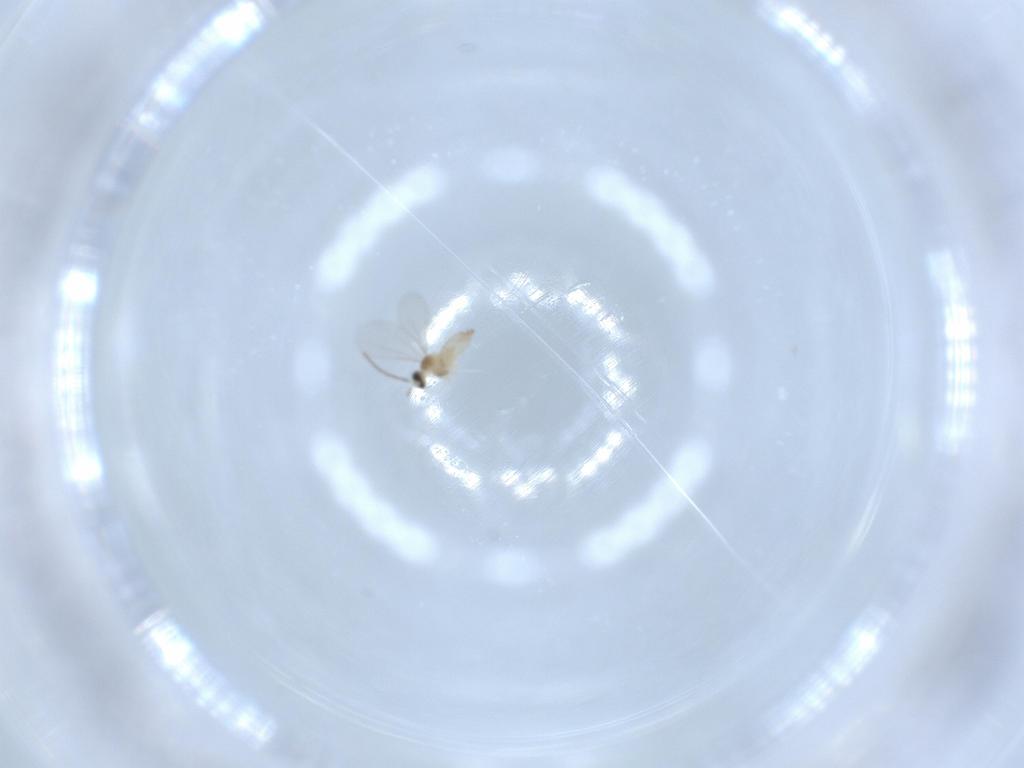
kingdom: Animalia
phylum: Arthropoda
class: Insecta
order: Diptera
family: Cecidomyiidae
